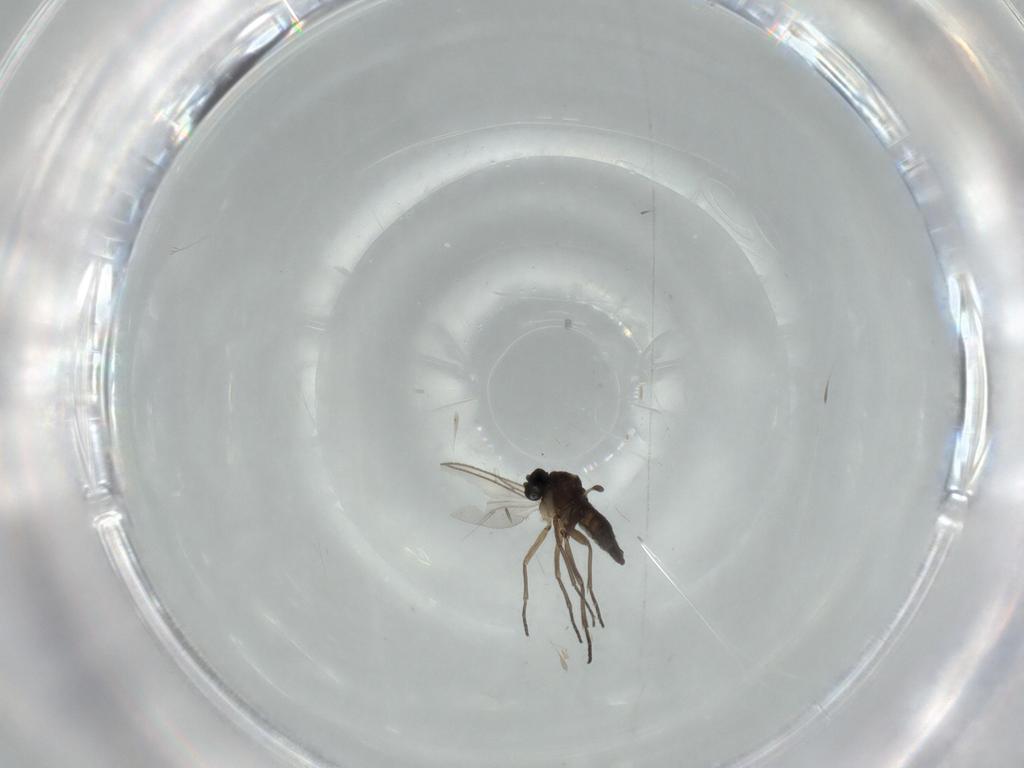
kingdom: Animalia
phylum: Arthropoda
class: Insecta
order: Diptera
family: Sciaridae
